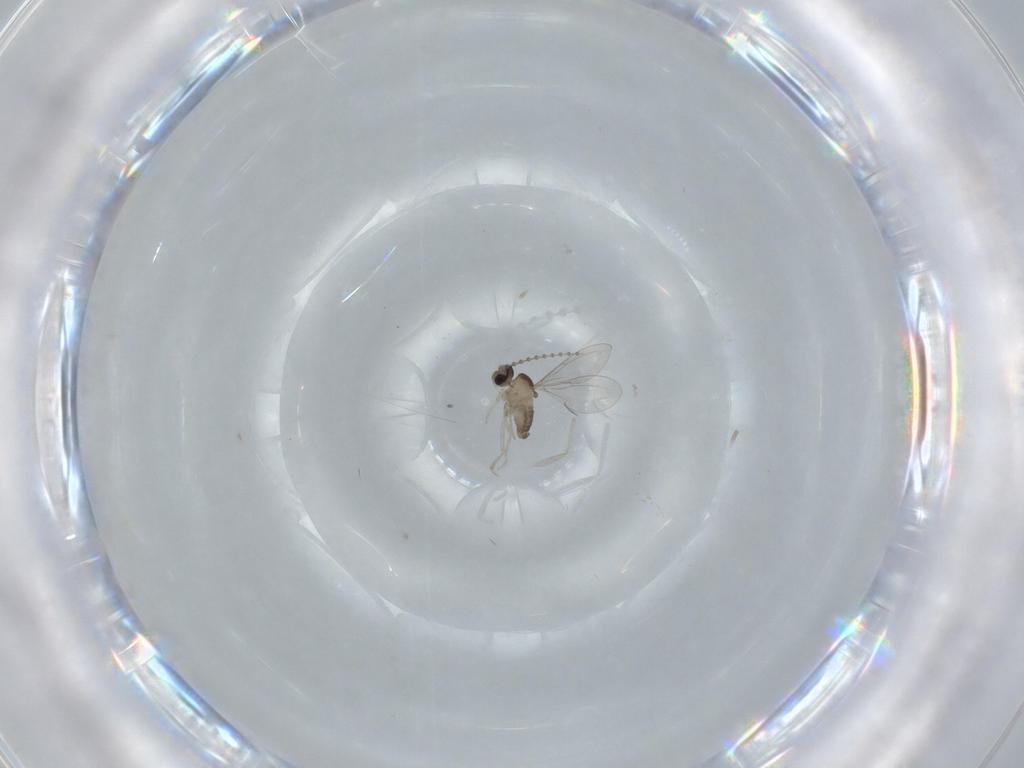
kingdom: Animalia
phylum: Arthropoda
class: Insecta
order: Diptera
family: Cecidomyiidae
